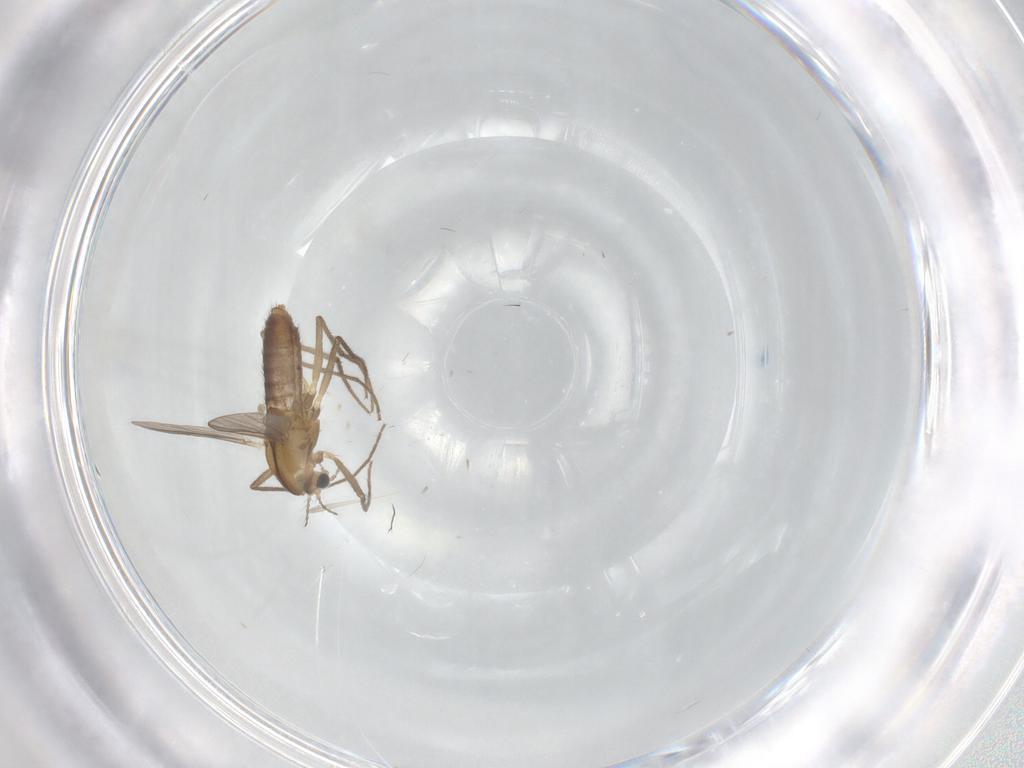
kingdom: Animalia
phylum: Arthropoda
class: Insecta
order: Diptera
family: Chironomidae
